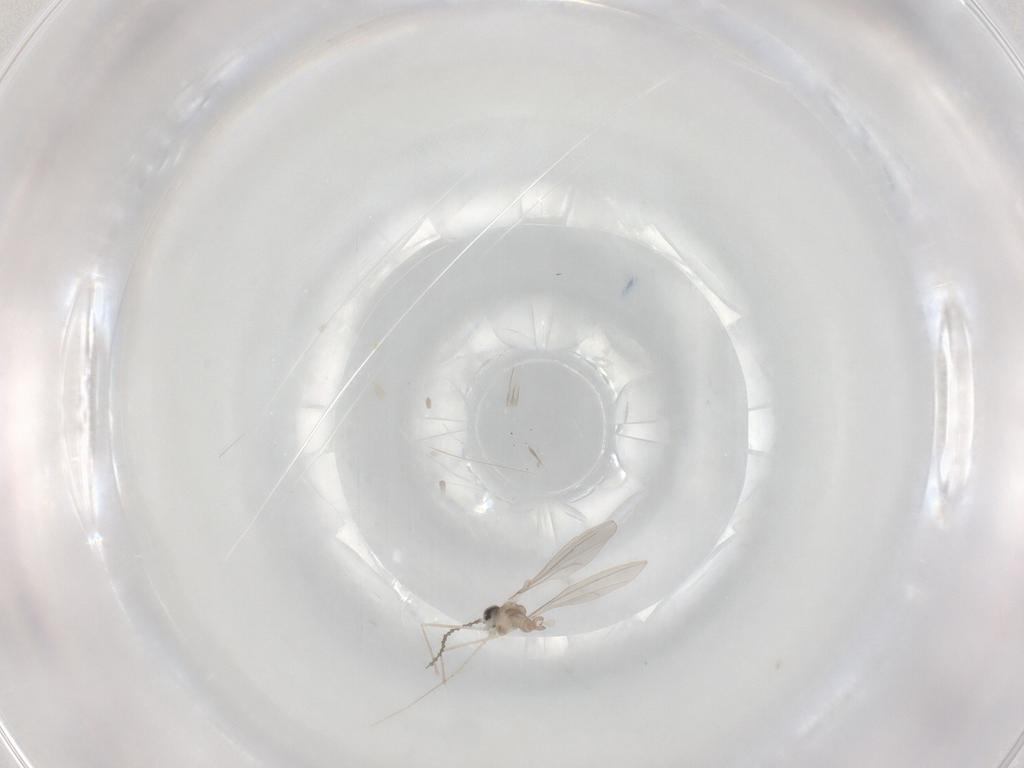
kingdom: Animalia
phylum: Arthropoda
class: Insecta
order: Diptera
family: Cecidomyiidae
